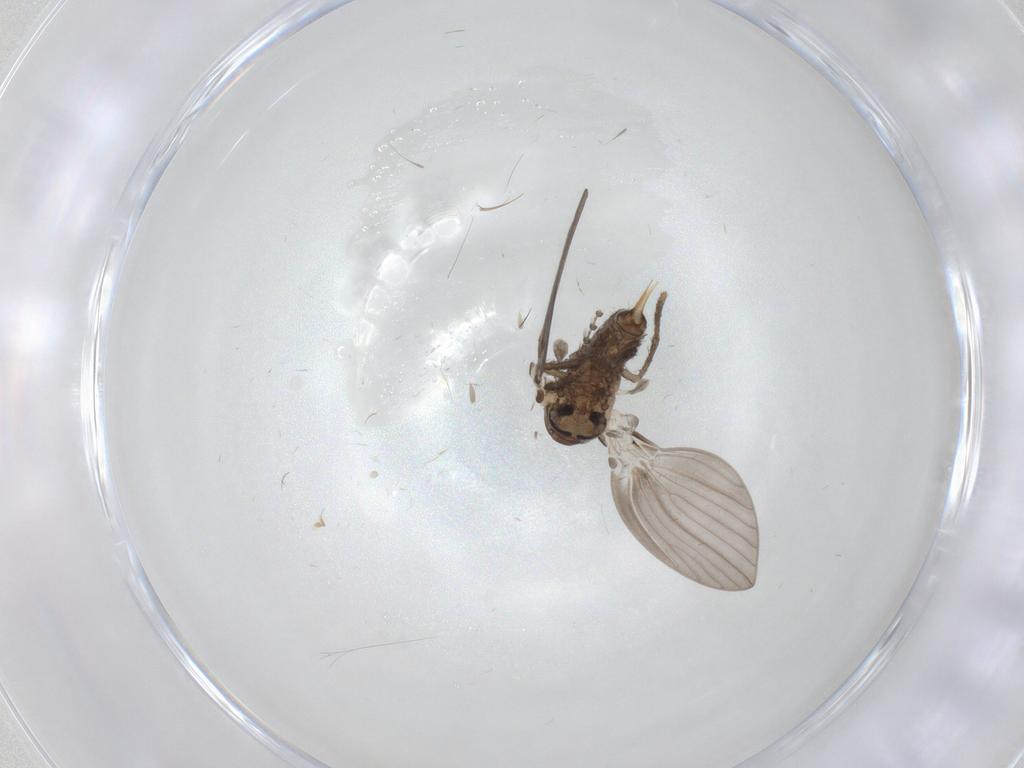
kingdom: Animalia
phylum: Arthropoda
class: Insecta
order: Diptera
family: Psychodidae
